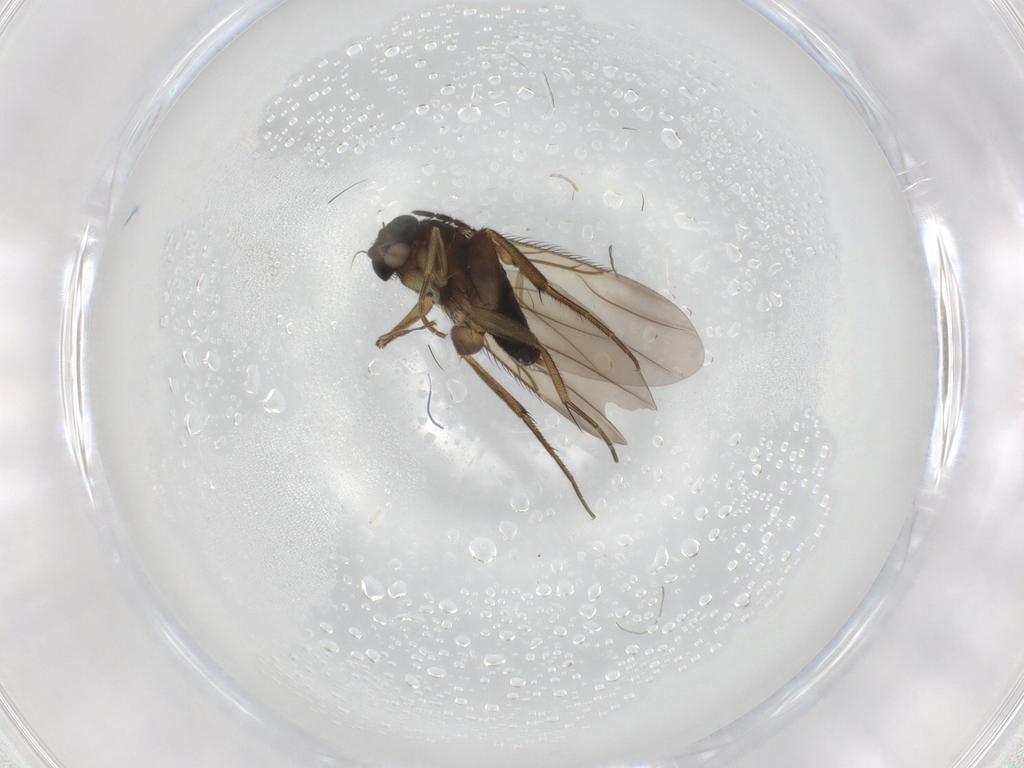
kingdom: Animalia
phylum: Arthropoda
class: Insecta
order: Diptera
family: Phoridae
